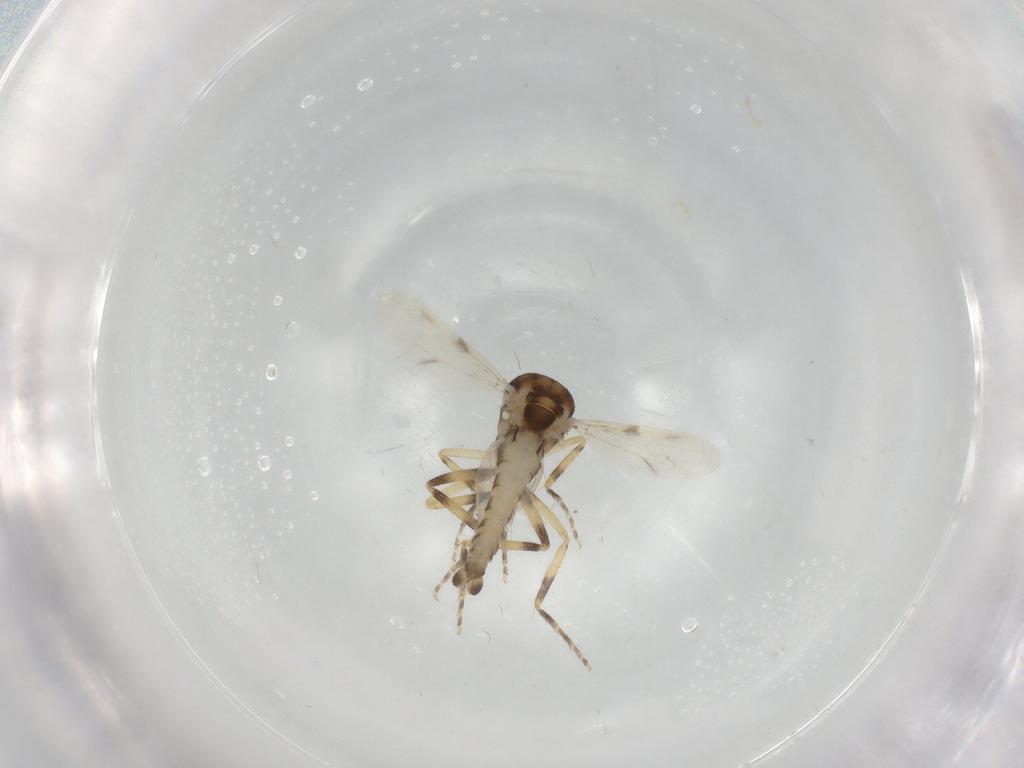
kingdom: Animalia
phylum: Arthropoda
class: Insecta
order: Diptera
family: Ceratopogonidae
